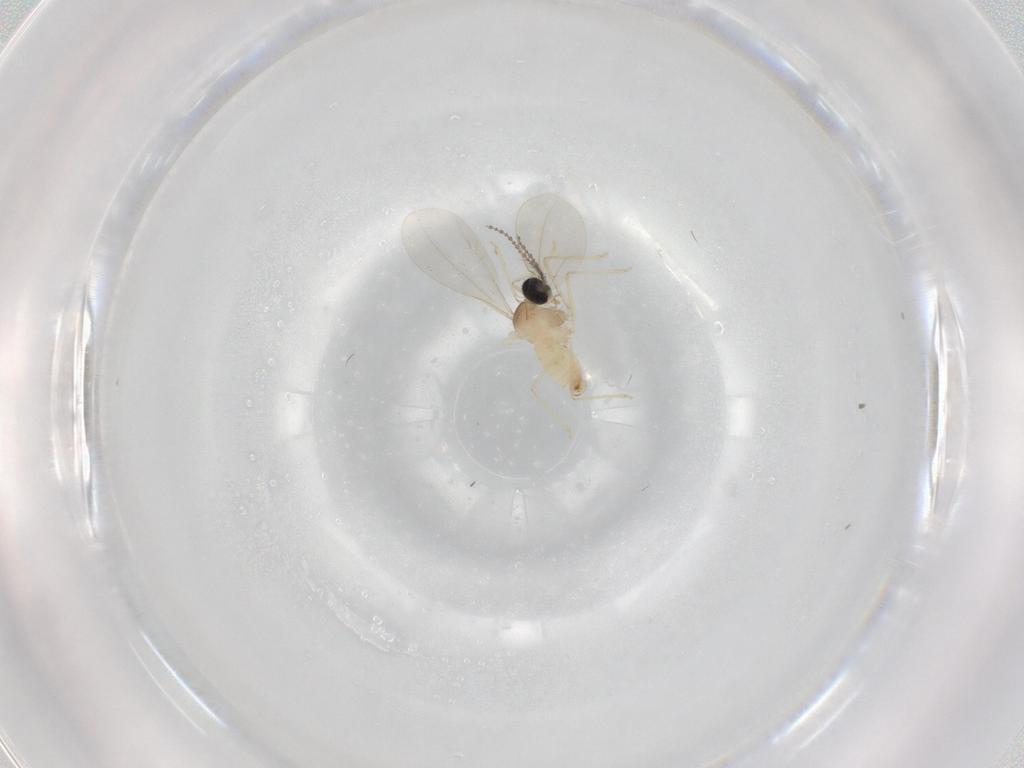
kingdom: Animalia
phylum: Arthropoda
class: Insecta
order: Diptera
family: Cecidomyiidae
